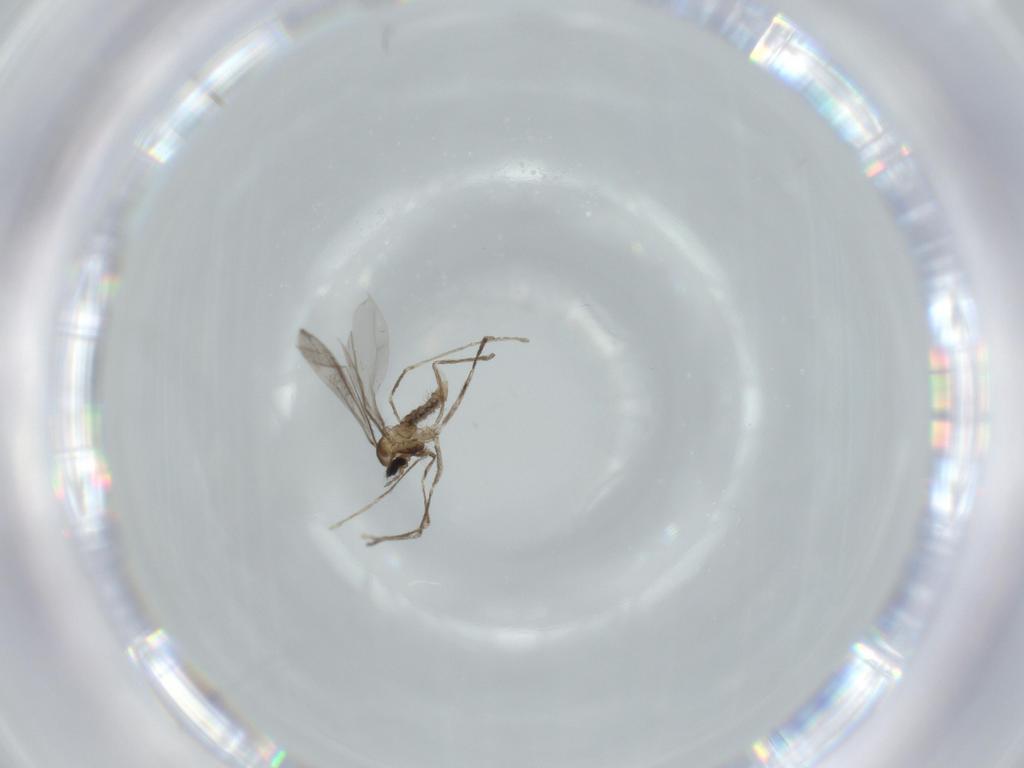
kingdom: Animalia
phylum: Arthropoda
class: Insecta
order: Diptera
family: Cecidomyiidae
